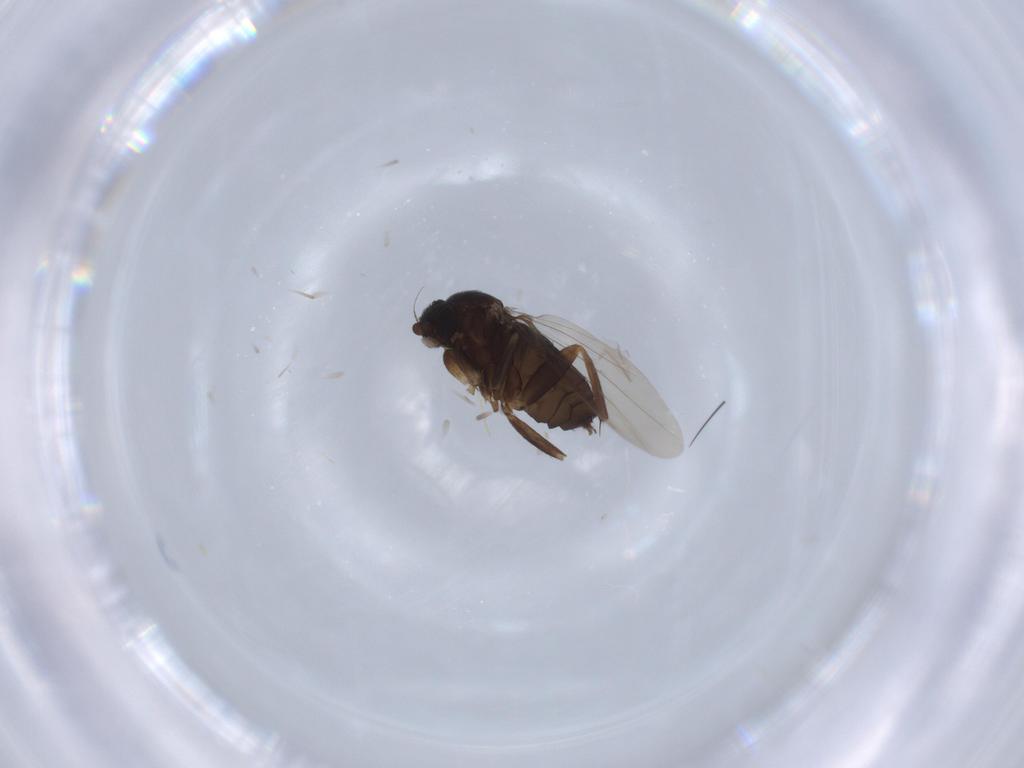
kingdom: Animalia
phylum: Arthropoda
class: Insecta
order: Diptera
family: Phoridae
